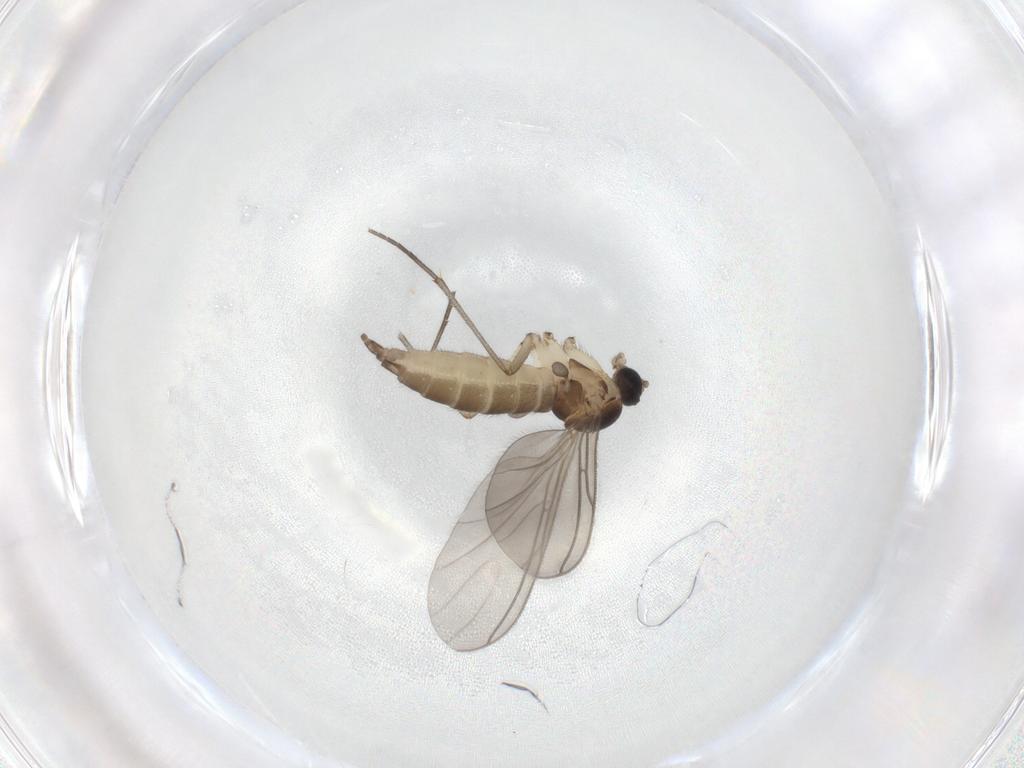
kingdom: Animalia
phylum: Arthropoda
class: Insecta
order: Diptera
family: Sciaridae
